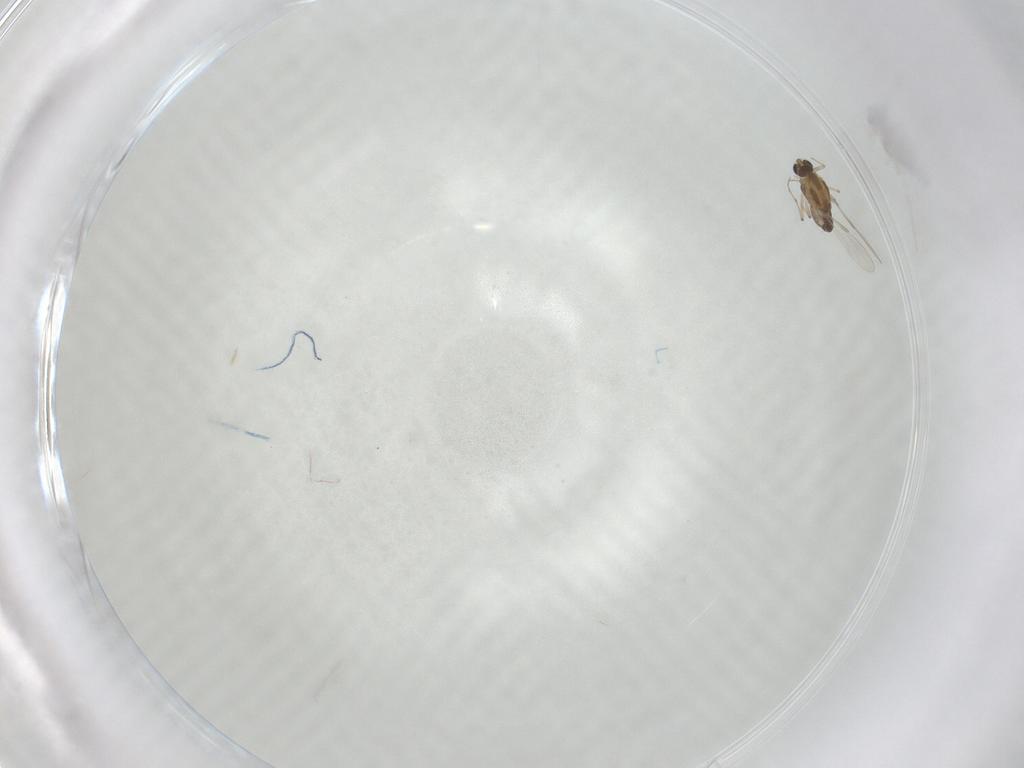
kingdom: Animalia
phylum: Arthropoda
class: Insecta
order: Diptera
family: Chironomidae
